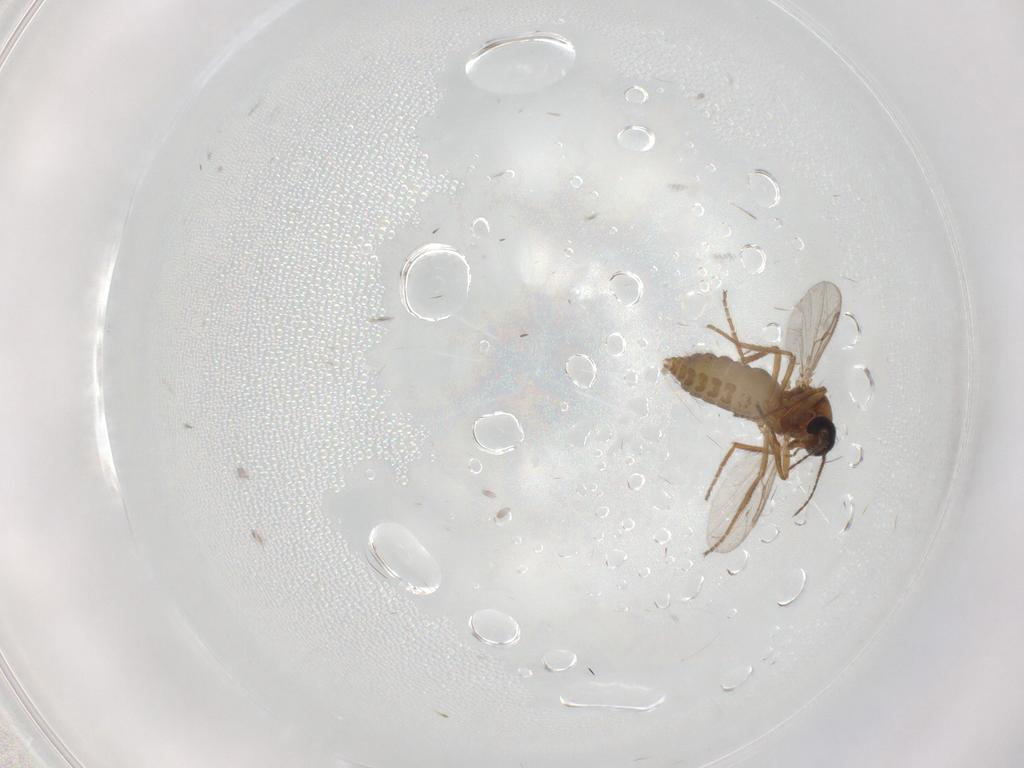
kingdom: Animalia
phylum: Arthropoda
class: Insecta
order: Diptera
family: Ceratopogonidae
